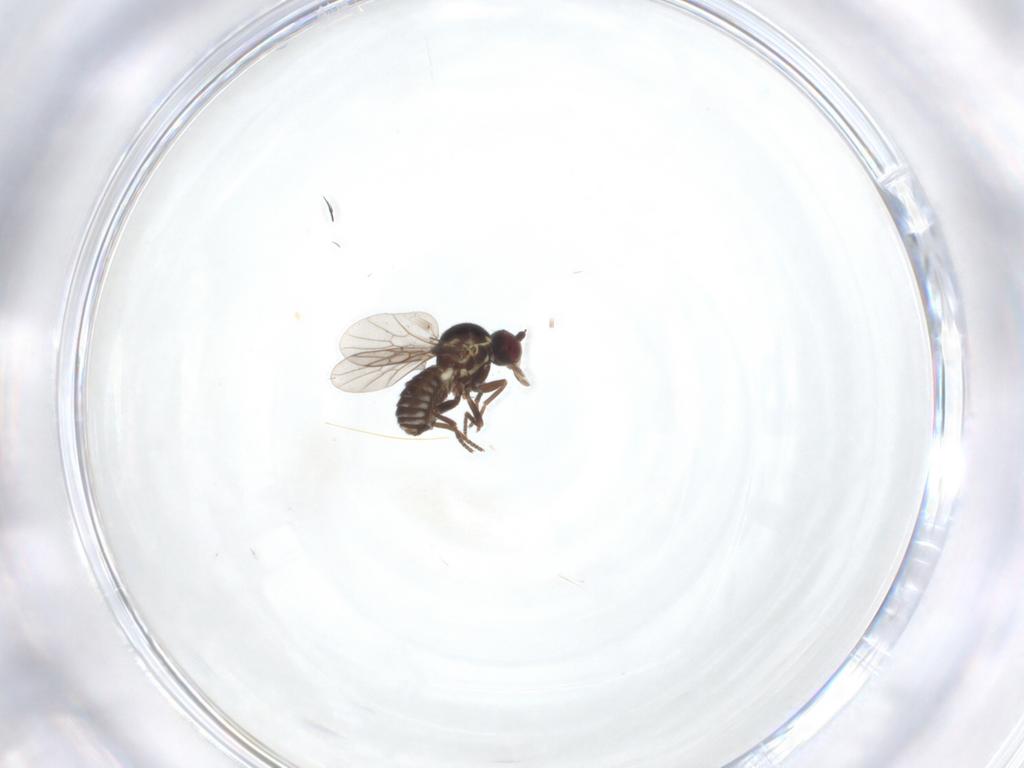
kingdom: Animalia
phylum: Arthropoda
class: Insecta
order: Diptera
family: Bombyliidae
